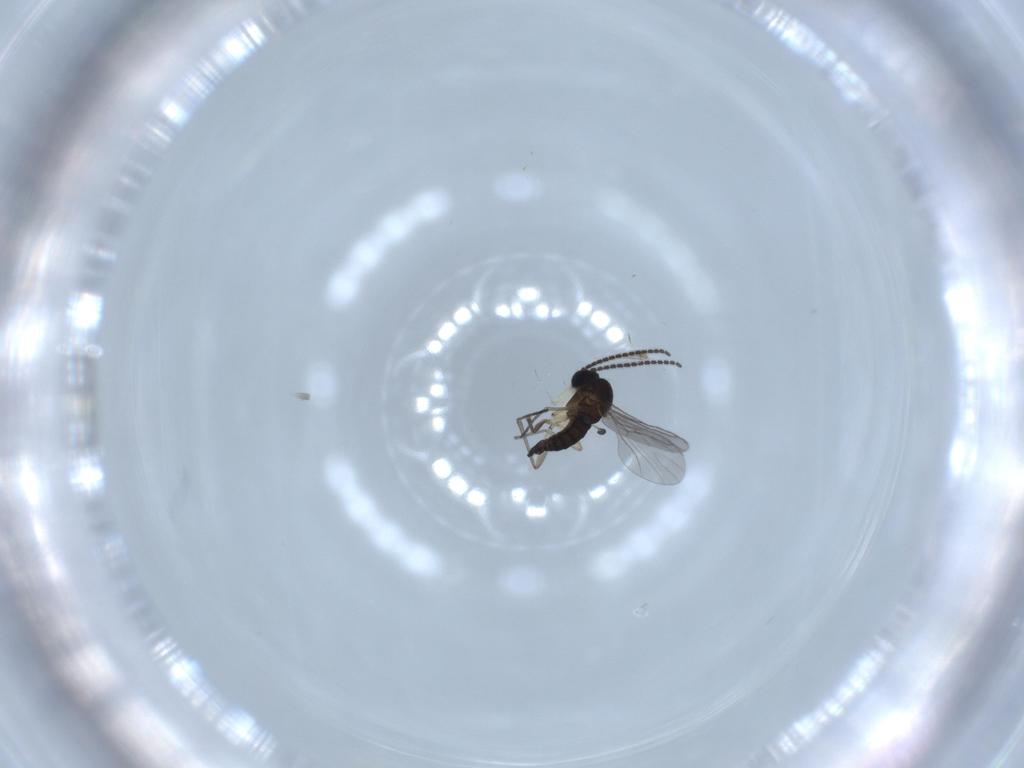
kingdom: Animalia
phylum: Arthropoda
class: Insecta
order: Diptera
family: Sciaridae
